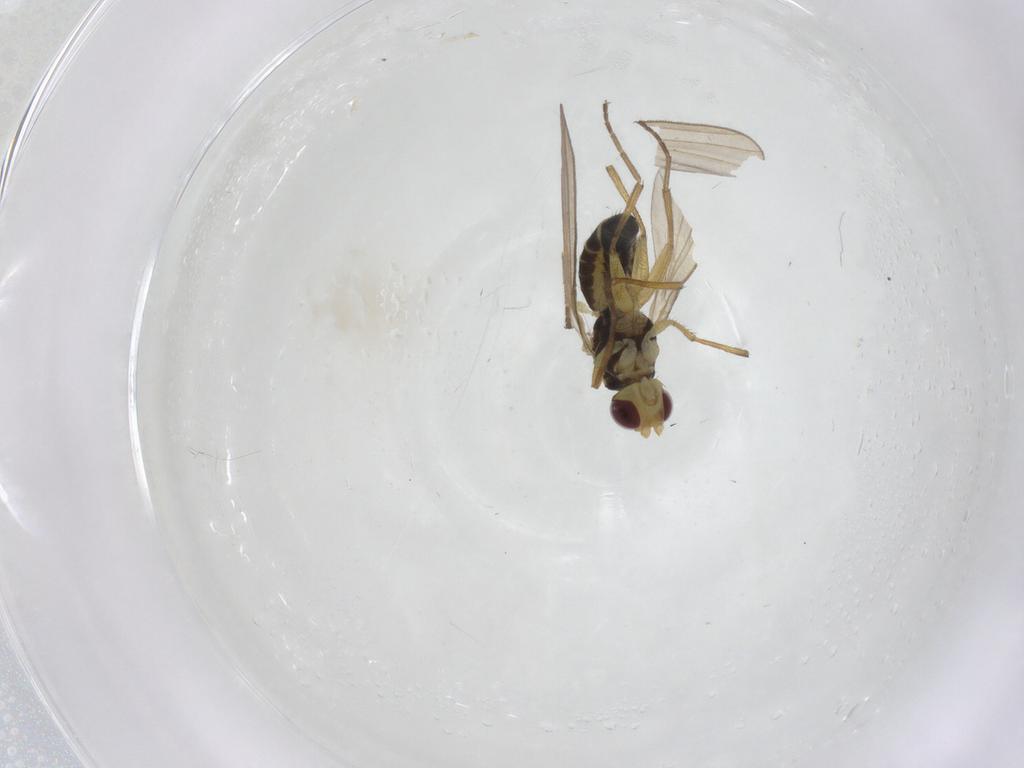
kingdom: Animalia
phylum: Arthropoda
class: Insecta
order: Diptera
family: Agromyzidae
